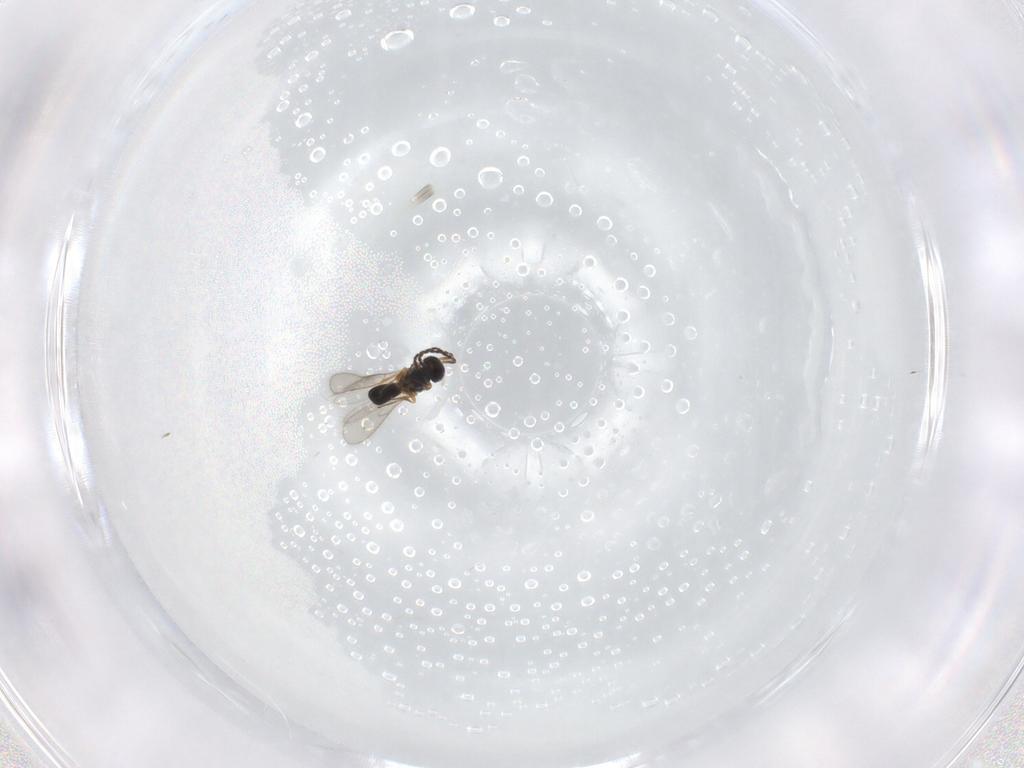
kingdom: Animalia
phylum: Arthropoda
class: Insecta
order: Hymenoptera
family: Scelionidae
